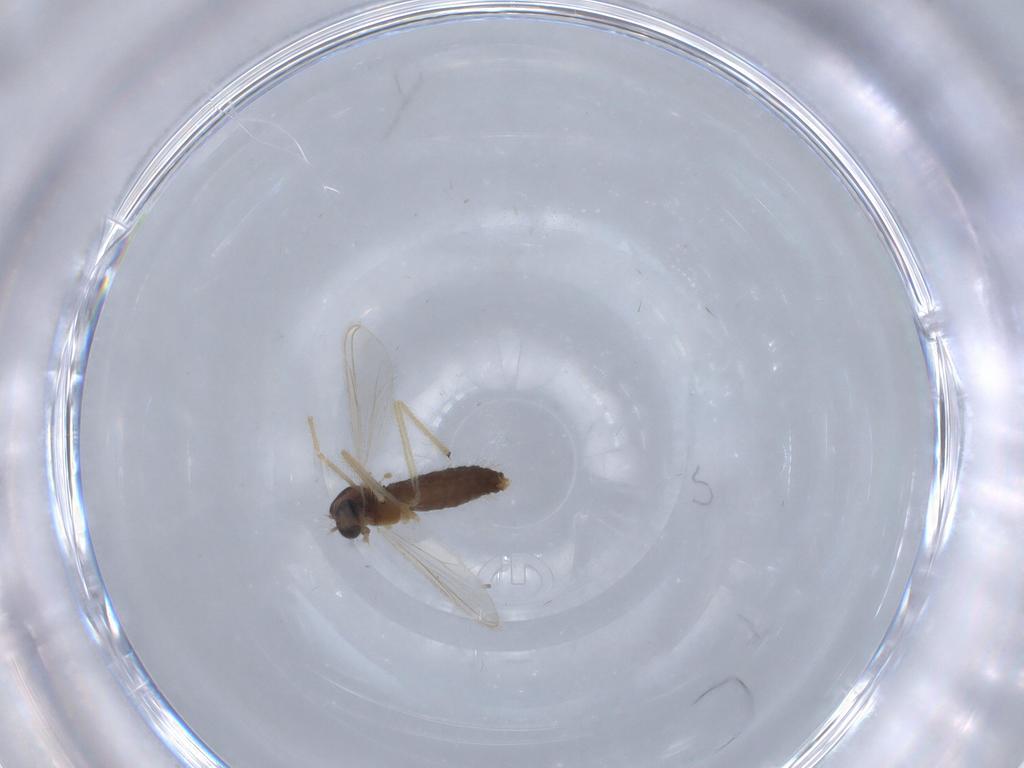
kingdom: Animalia
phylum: Arthropoda
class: Insecta
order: Diptera
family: Chironomidae
